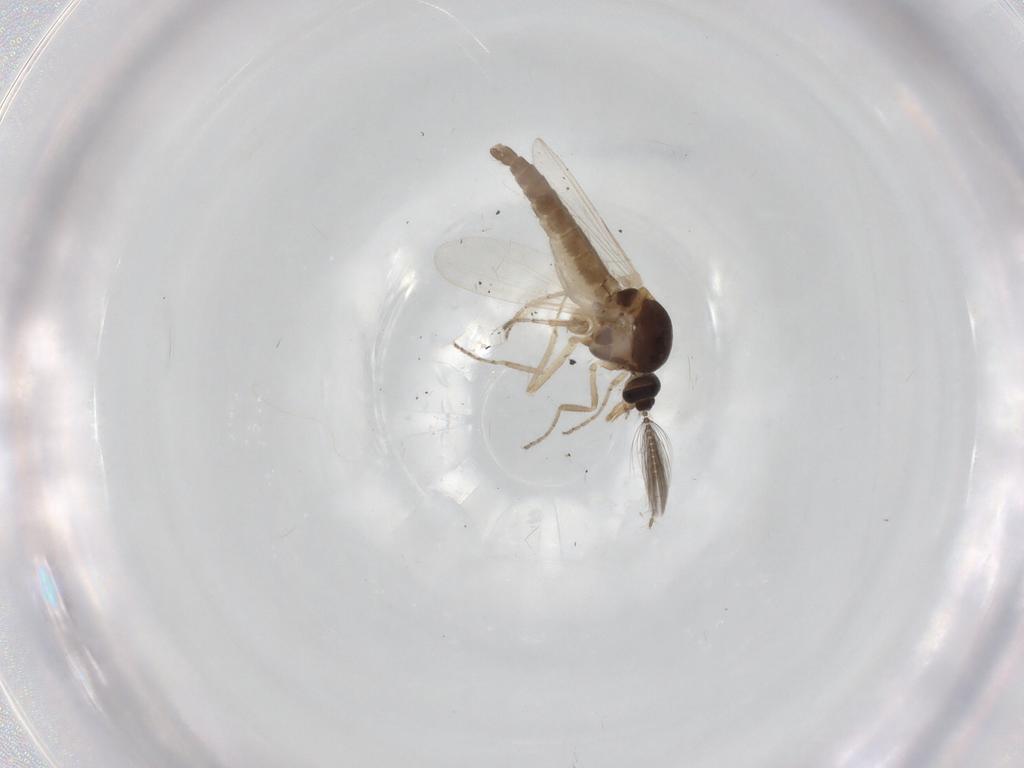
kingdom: Animalia
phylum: Arthropoda
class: Insecta
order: Diptera
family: Ceratopogonidae
